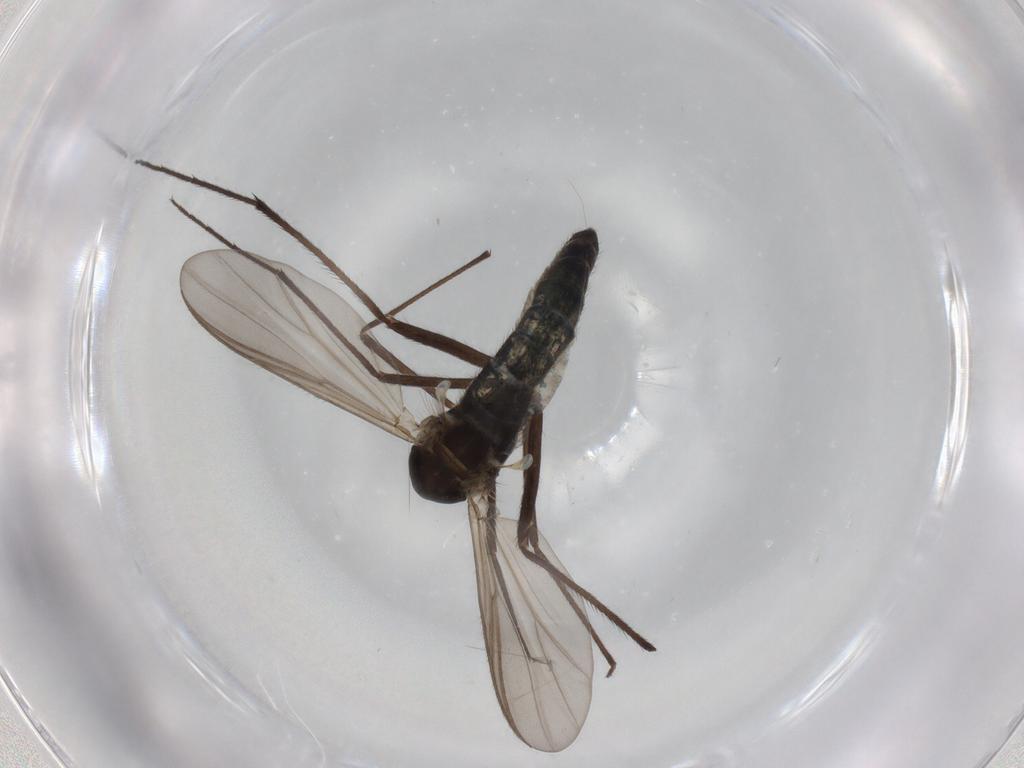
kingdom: Animalia
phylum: Arthropoda
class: Insecta
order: Diptera
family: Chironomidae
